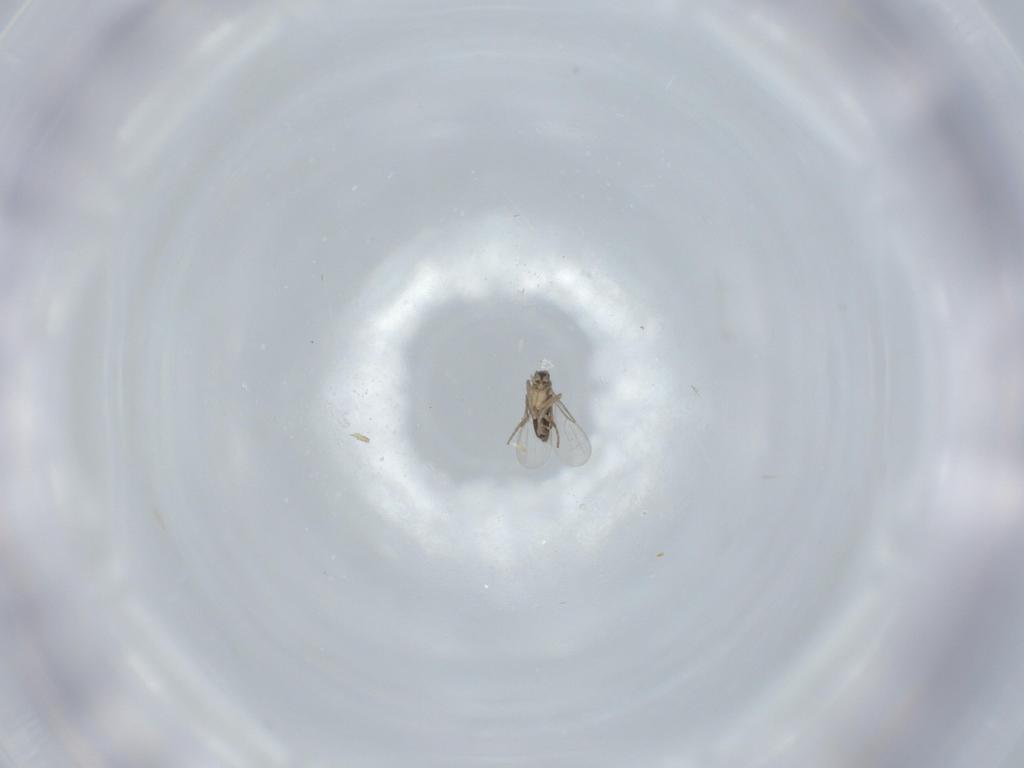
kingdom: Animalia
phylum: Arthropoda
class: Insecta
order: Diptera
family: Phoridae
